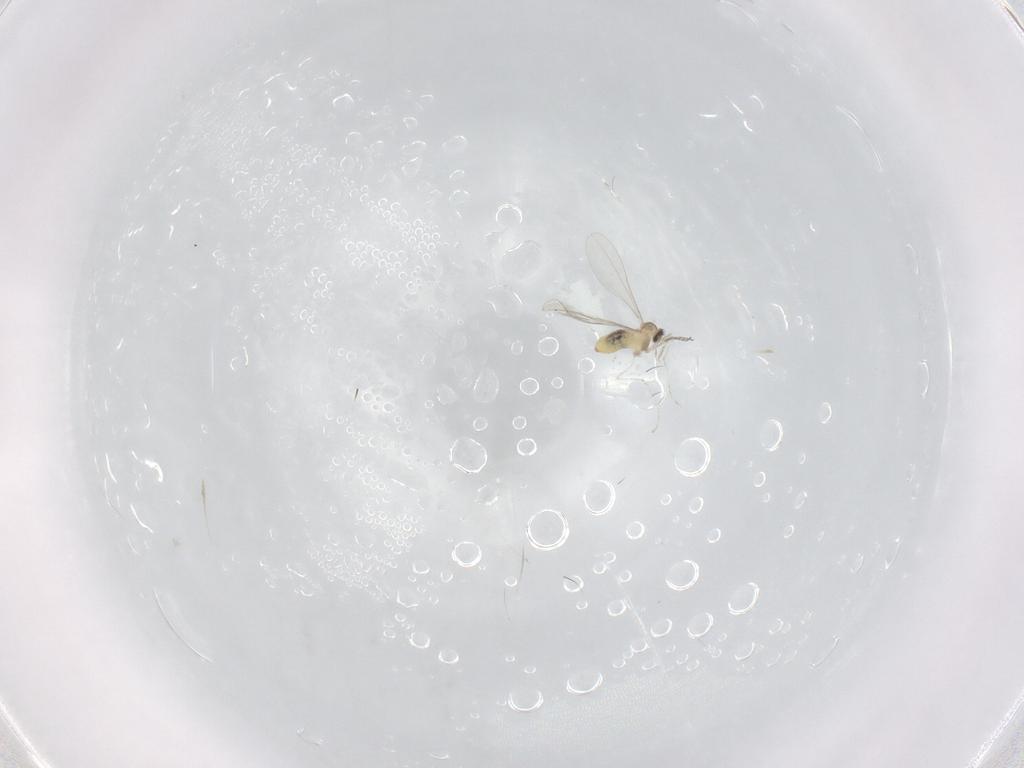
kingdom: Animalia
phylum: Arthropoda
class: Insecta
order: Diptera
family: Cecidomyiidae
